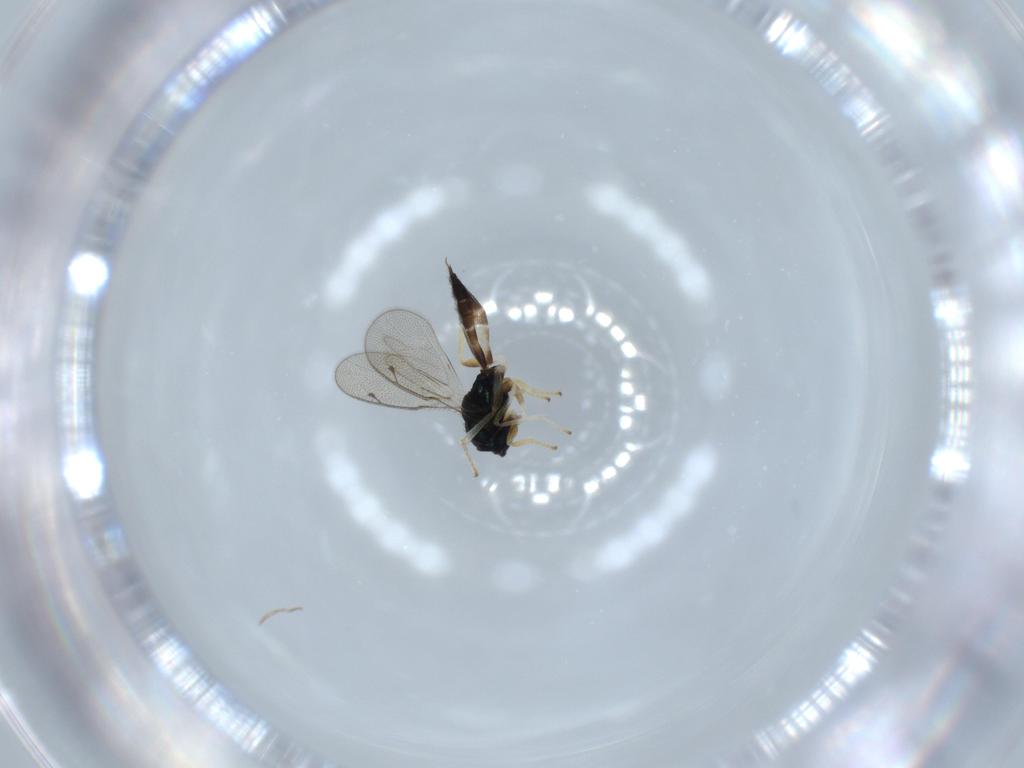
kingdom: Animalia
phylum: Arthropoda
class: Insecta
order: Hymenoptera
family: Pteromalidae
